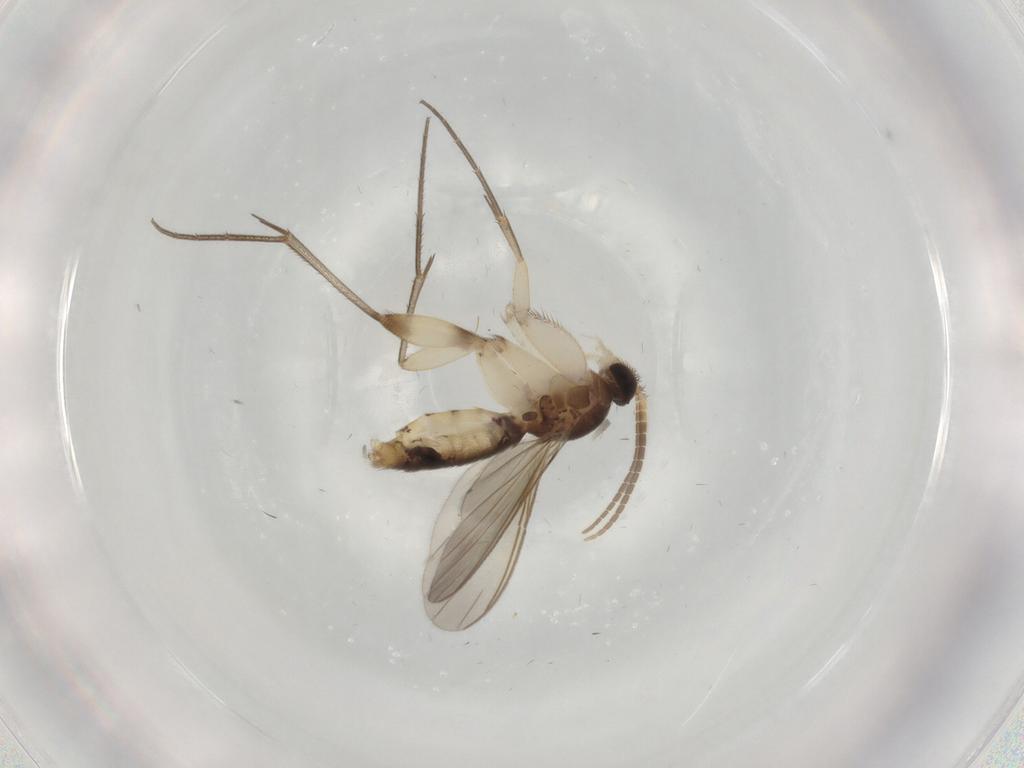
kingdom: Animalia
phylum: Arthropoda
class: Insecta
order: Diptera
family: Mycetophilidae
